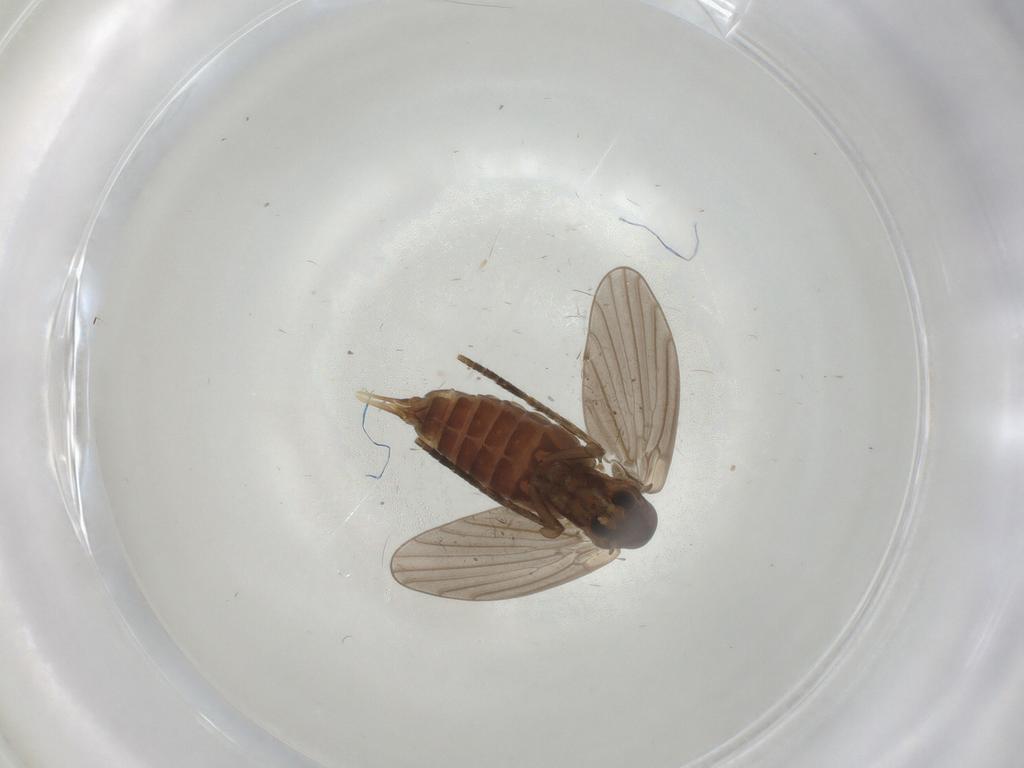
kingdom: Animalia
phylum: Arthropoda
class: Insecta
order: Diptera
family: Psychodidae
